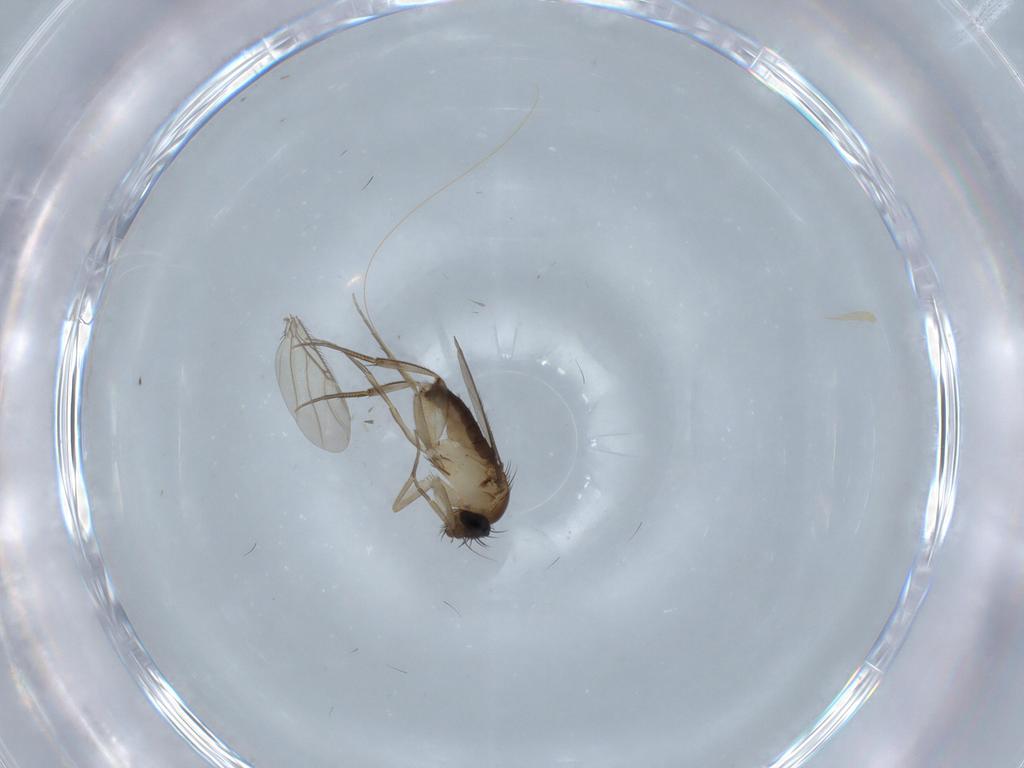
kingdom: Animalia
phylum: Arthropoda
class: Insecta
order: Diptera
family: Phoridae
